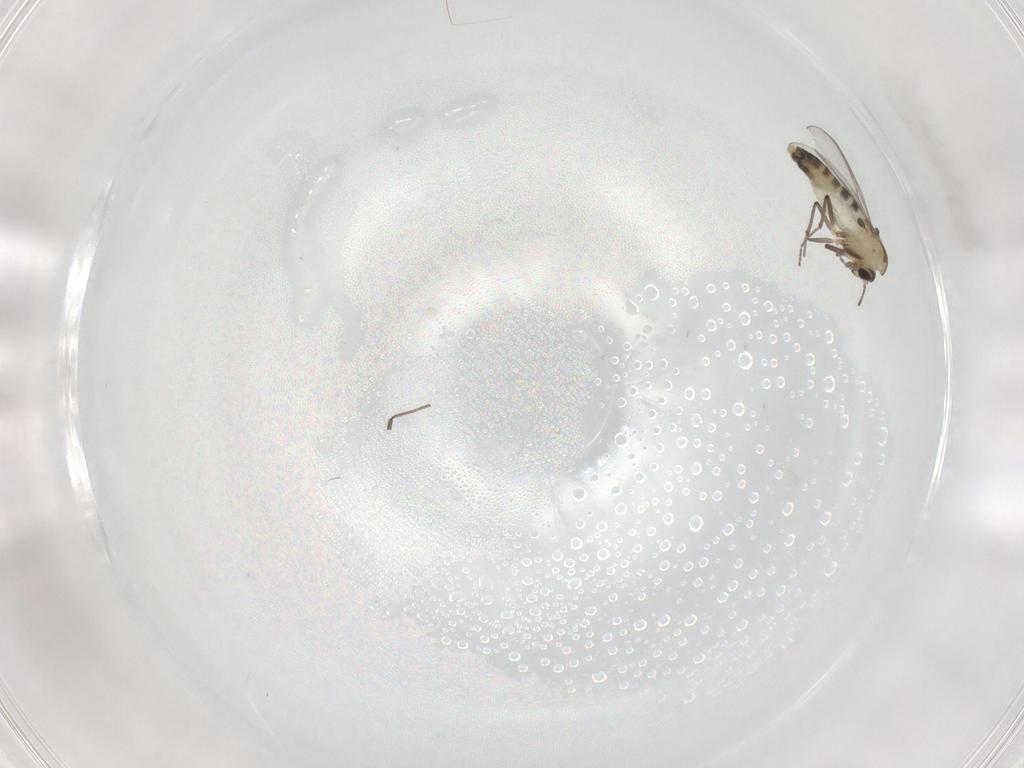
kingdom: Animalia
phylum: Arthropoda
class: Insecta
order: Diptera
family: Chironomidae
